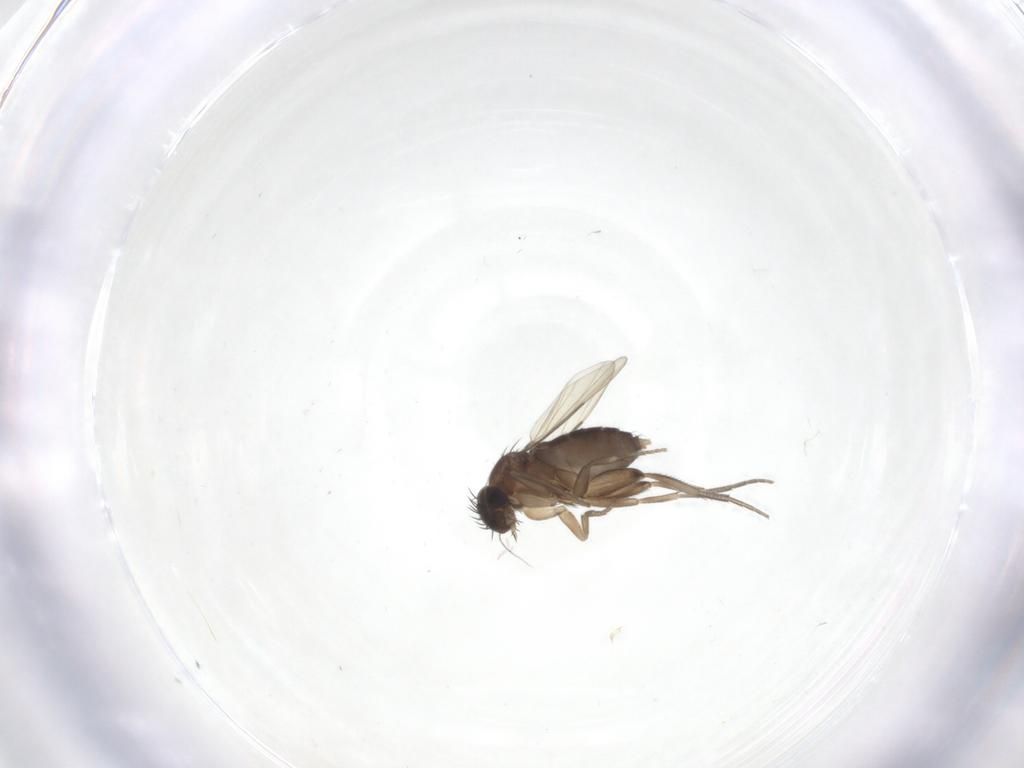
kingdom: Animalia
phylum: Arthropoda
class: Insecta
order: Diptera
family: Phoridae
